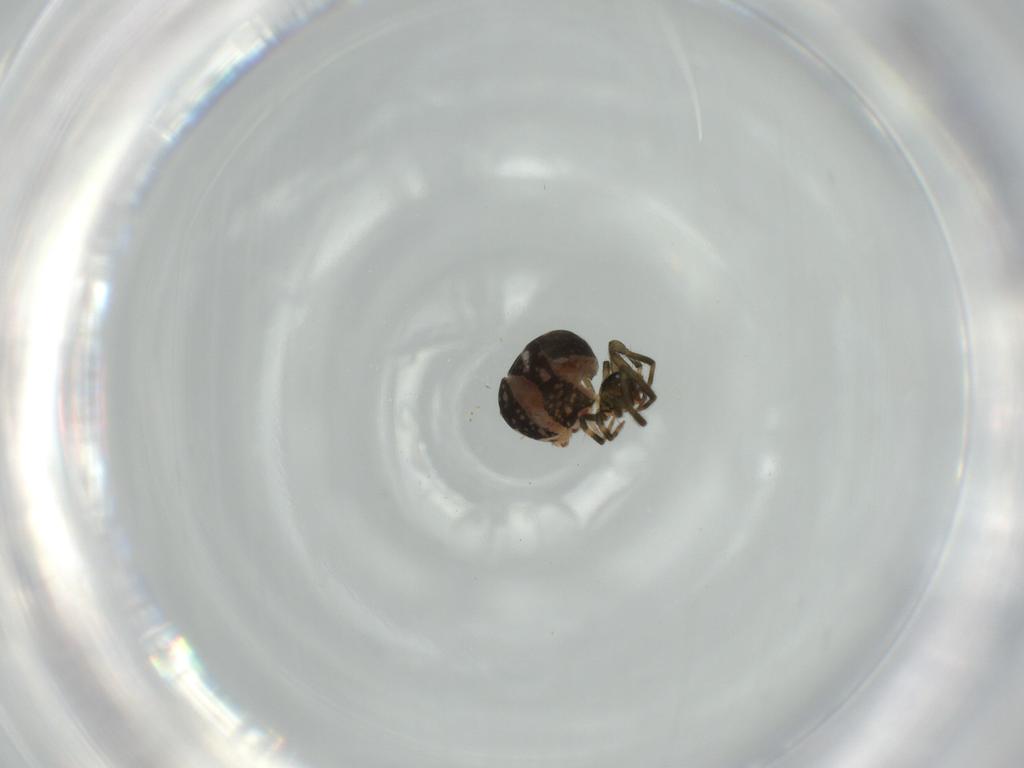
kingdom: Animalia
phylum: Arthropoda
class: Arachnida
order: Araneae
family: Mysmenidae
